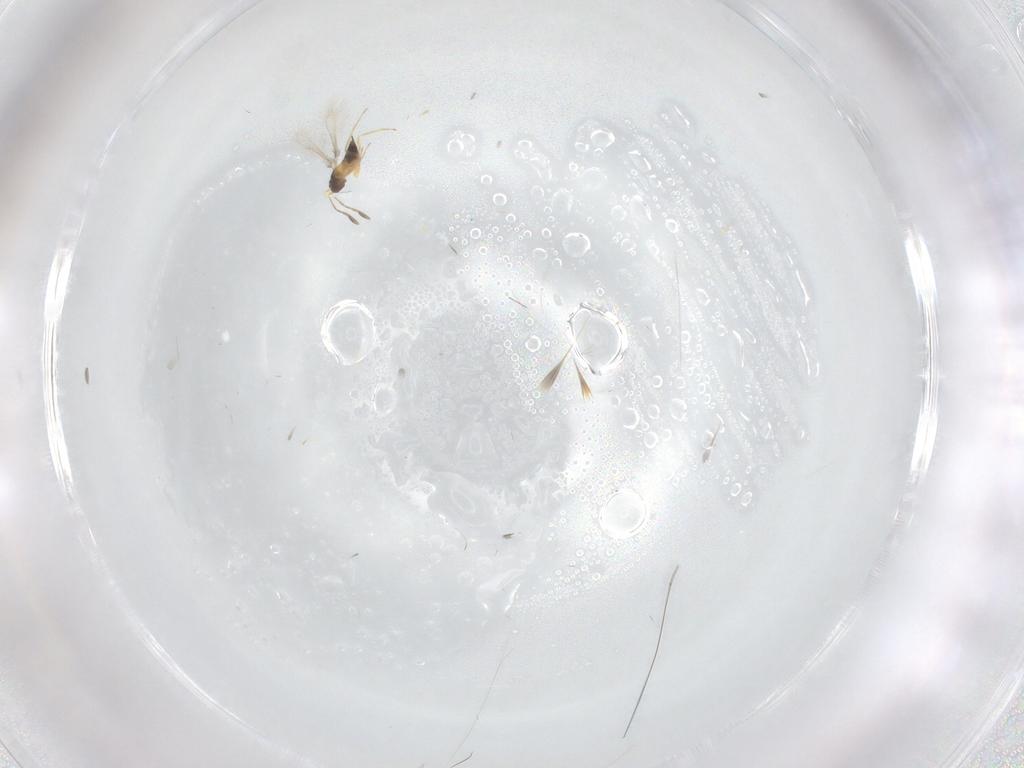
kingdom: Animalia
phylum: Arthropoda
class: Insecta
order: Hymenoptera
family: Mymaridae
